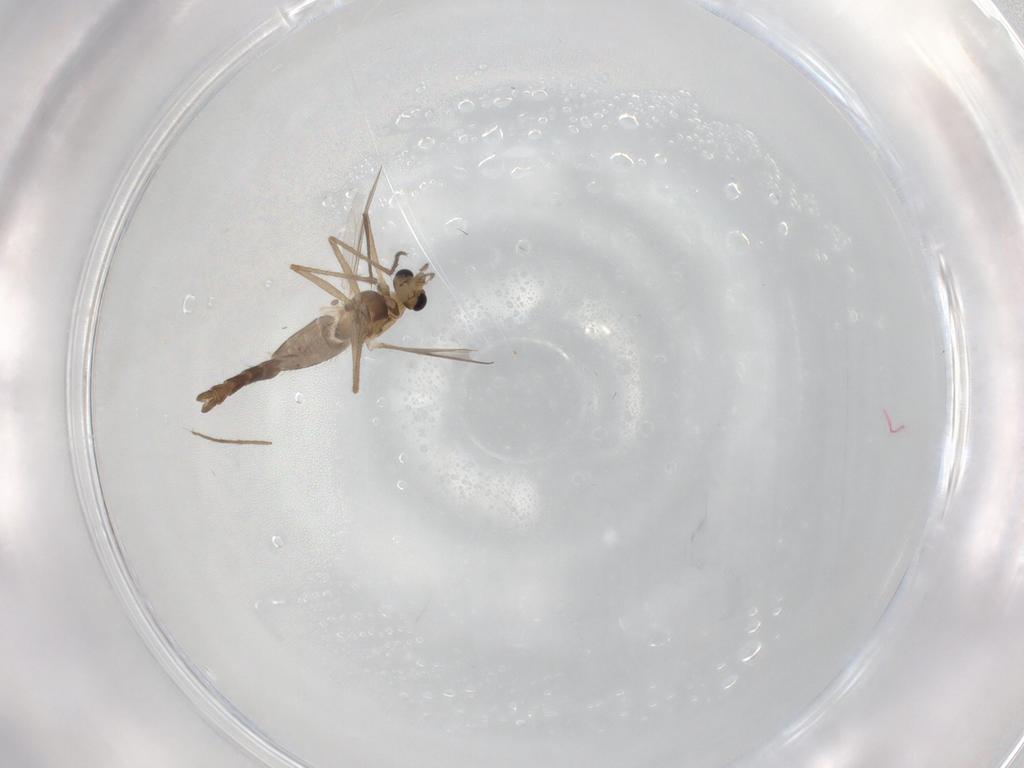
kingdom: Animalia
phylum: Arthropoda
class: Insecta
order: Diptera
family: Chironomidae
